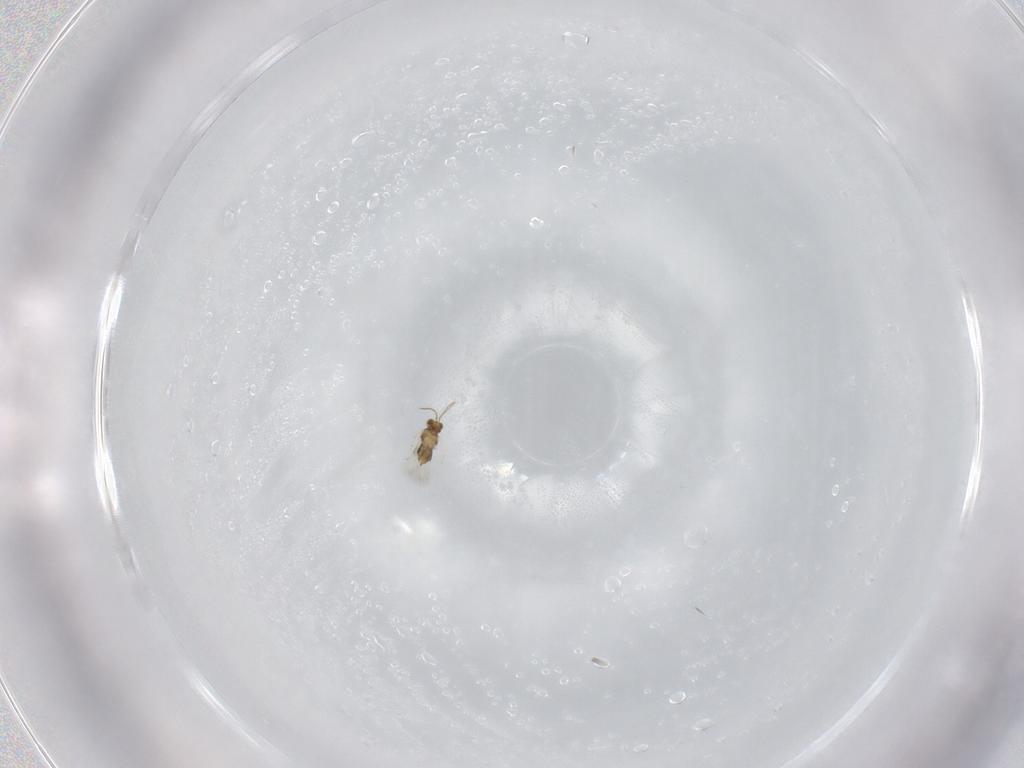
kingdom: Animalia
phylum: Arthropoda
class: Insecta
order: Hymenoptera
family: Aphelinidae
